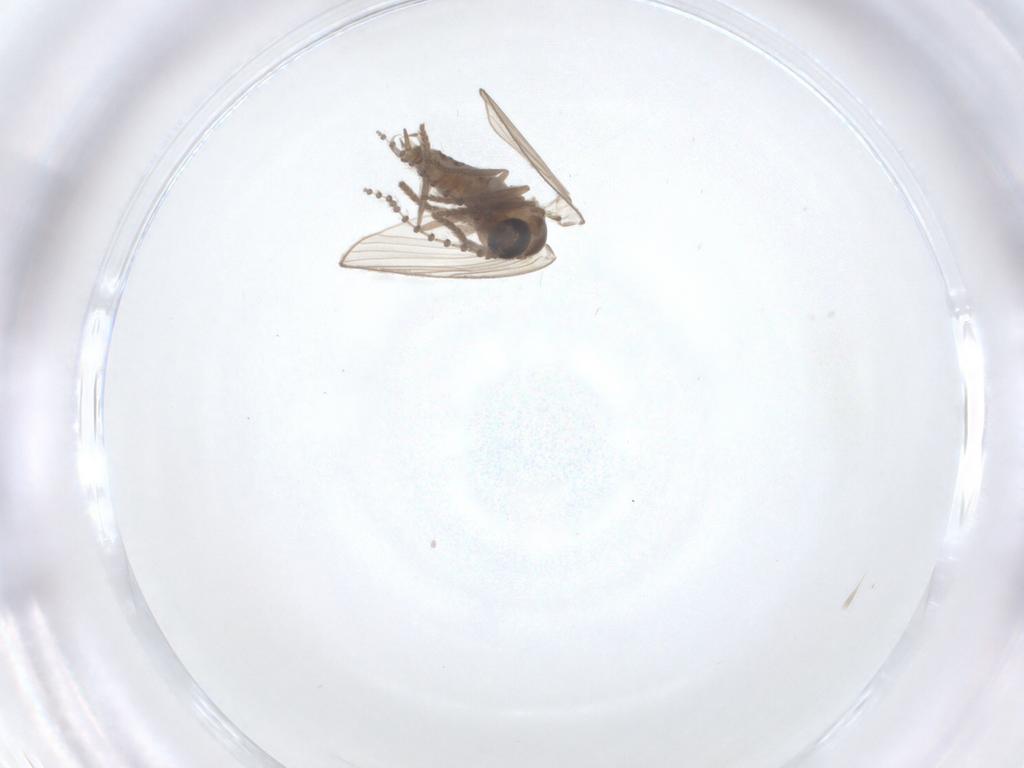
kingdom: Animalia
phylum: Arthropoda
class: Insecta
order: Diptera
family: Psychodidae
